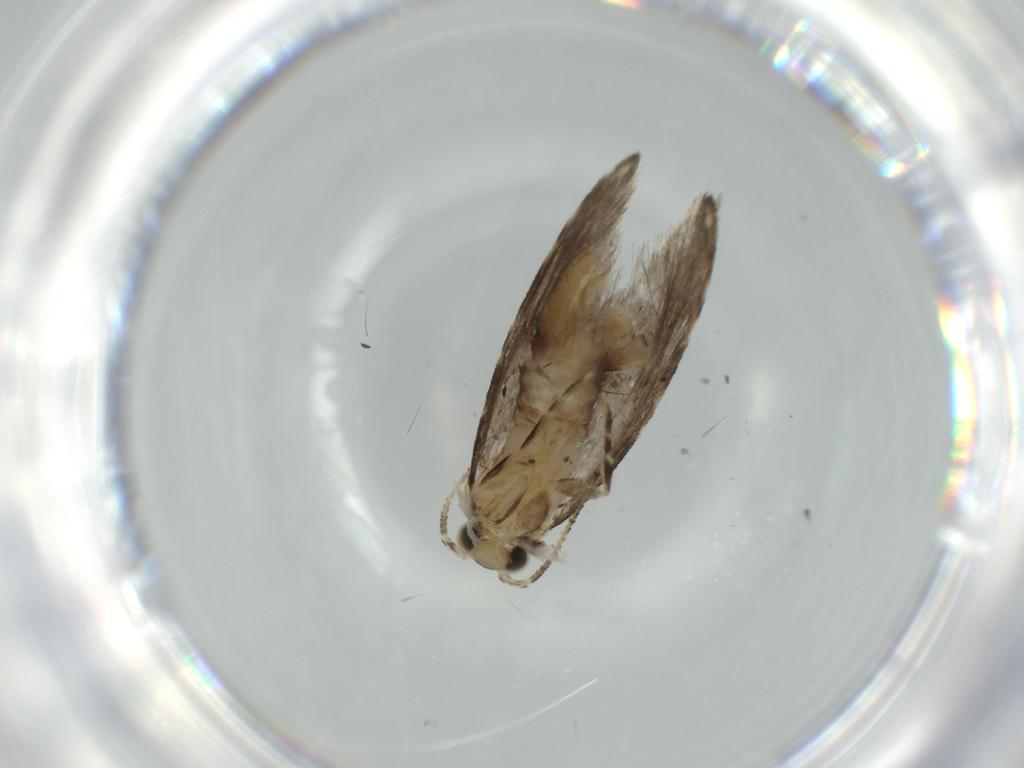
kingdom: Animalia
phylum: Arthropoda
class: Insecta
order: Lepidoptera
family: Tineidae
